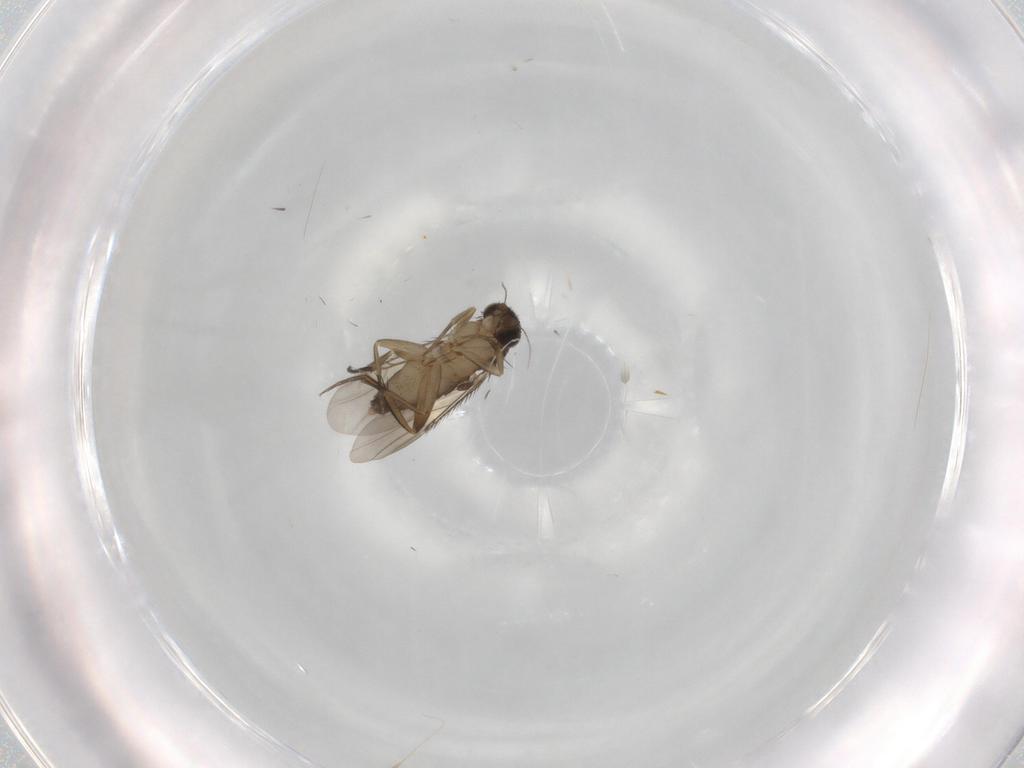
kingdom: Animalia
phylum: Arthropoda
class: Insecta
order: Diptera
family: Phoridae
